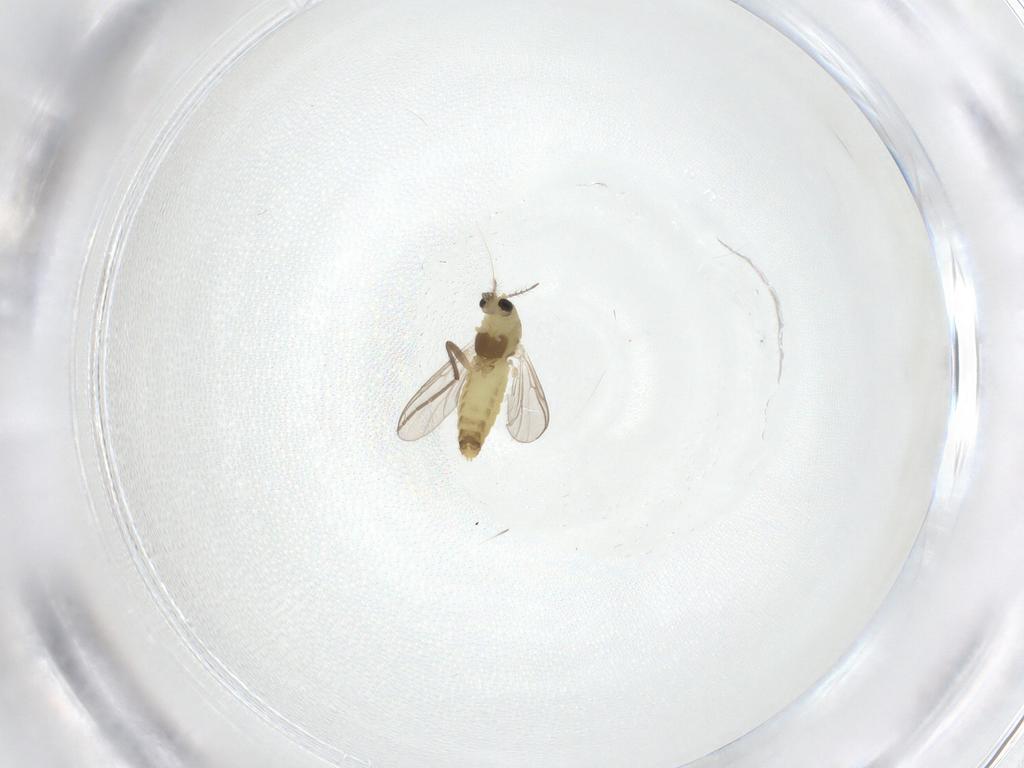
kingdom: Animalia
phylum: Arthropoda
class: Insecta
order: Diptera
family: Chironomidae
